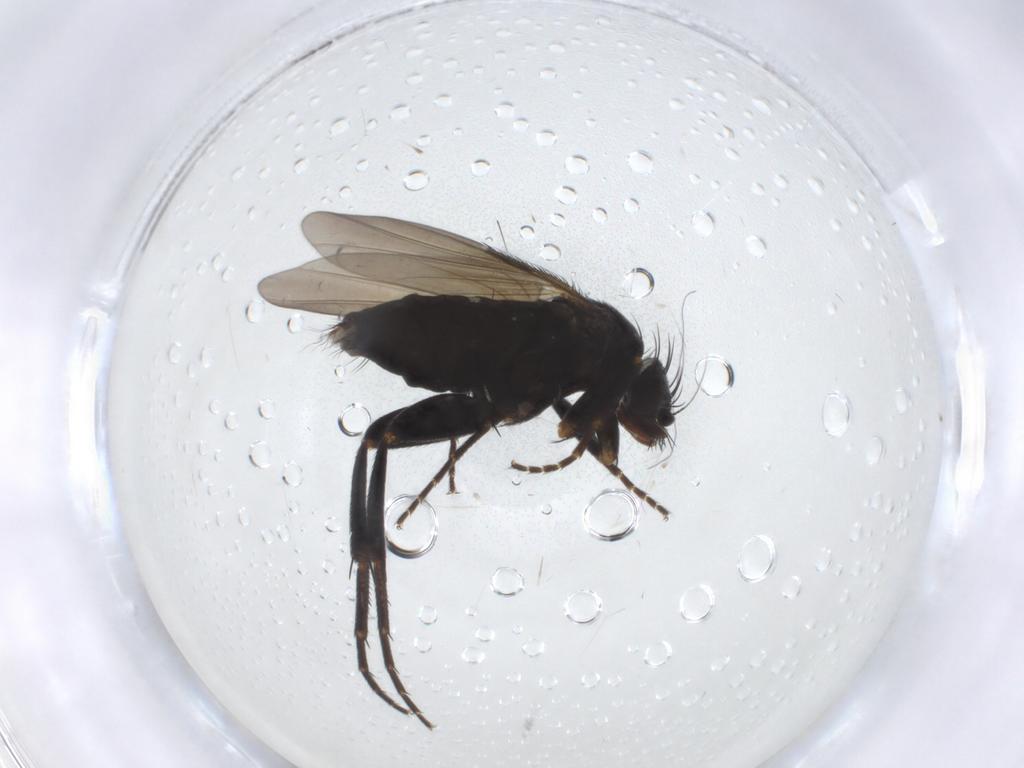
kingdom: Animalia
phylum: Arthropoda
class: Insecta
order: Diptera
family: Phoridae
